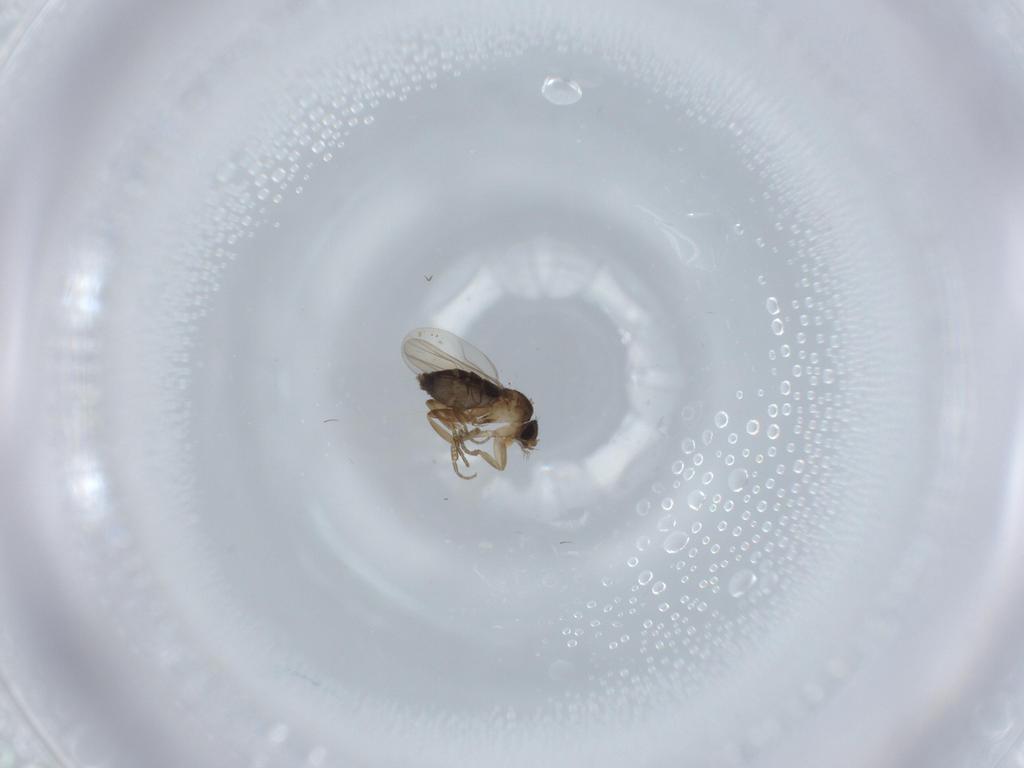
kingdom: Animalia
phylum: Arthropoda
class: Insecta
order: Diptera
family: Phoridae
